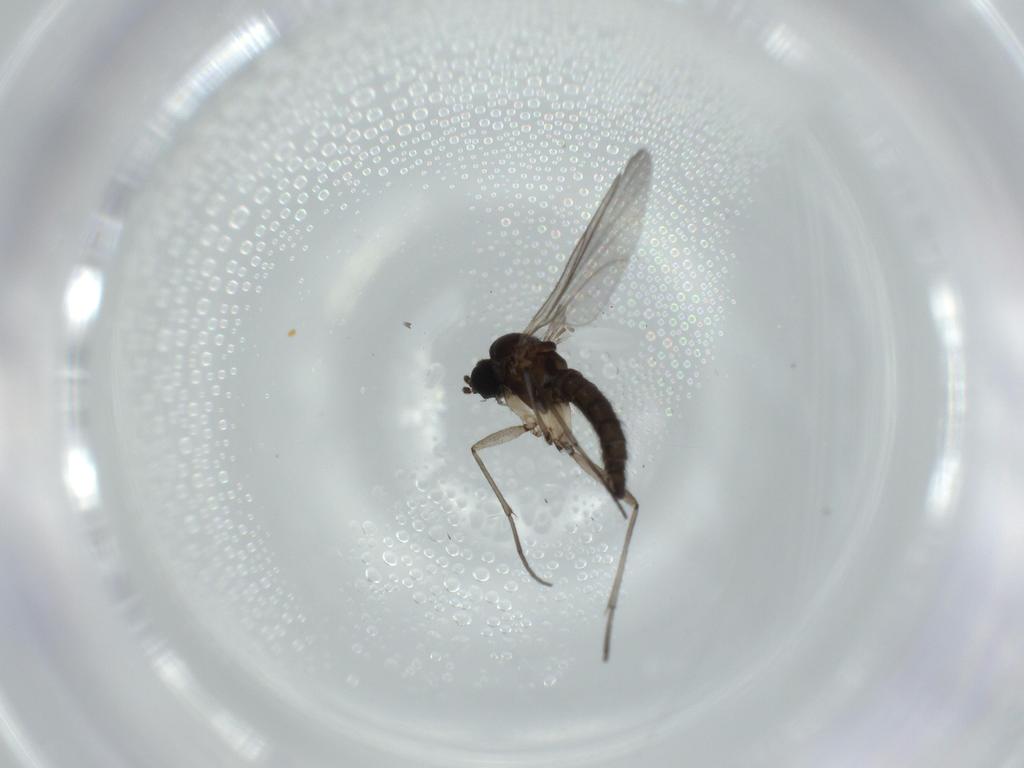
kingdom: Animalia
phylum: Arthropoda
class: Insecta
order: Diptera
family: Sciaridae
